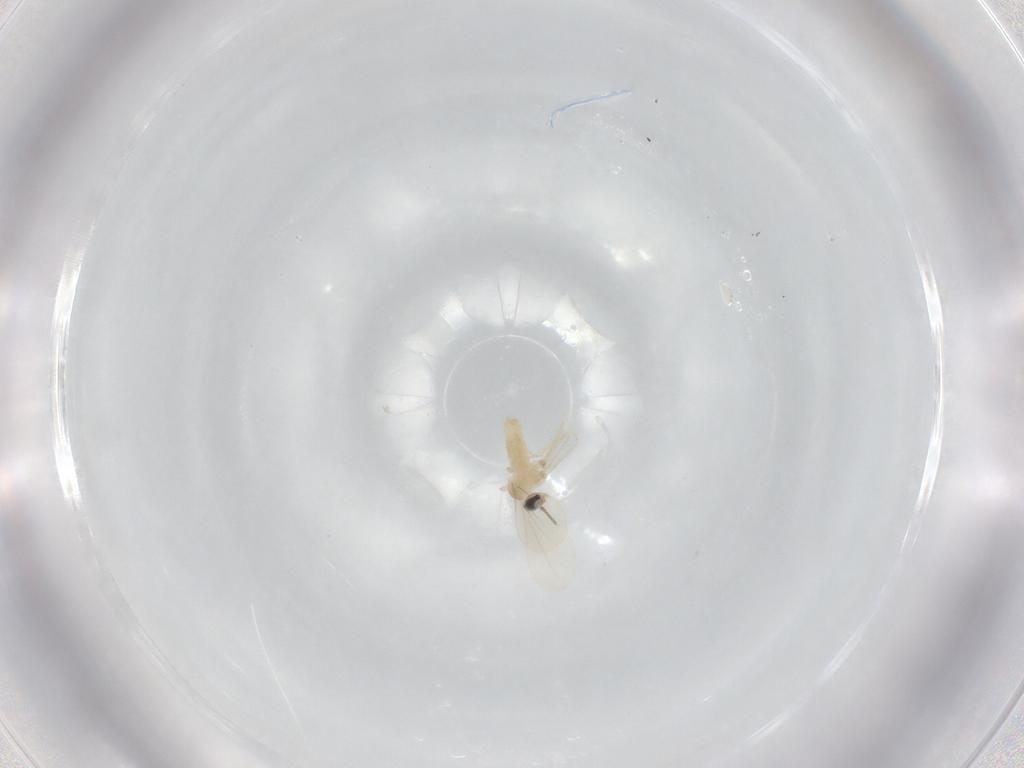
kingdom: Animalia
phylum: Arthropoda
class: Insecta
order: Diptera
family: Cecidomyiidae
